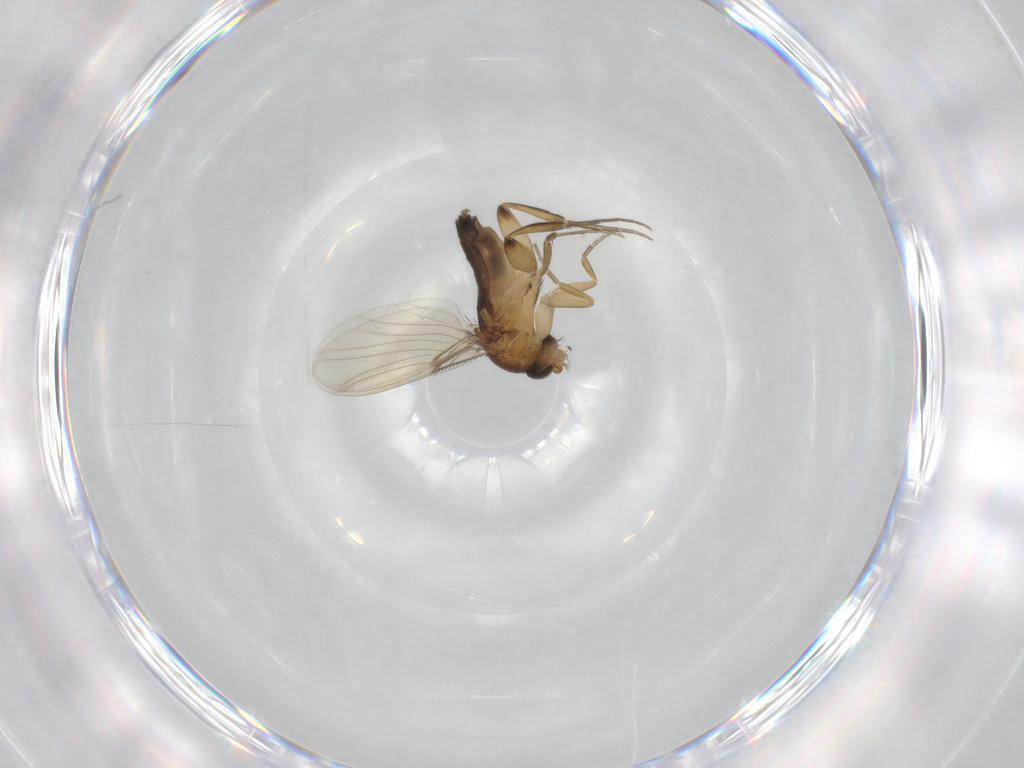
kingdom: Animalia
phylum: Arthropoda
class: Insecta
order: Diptera
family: Phoridae
